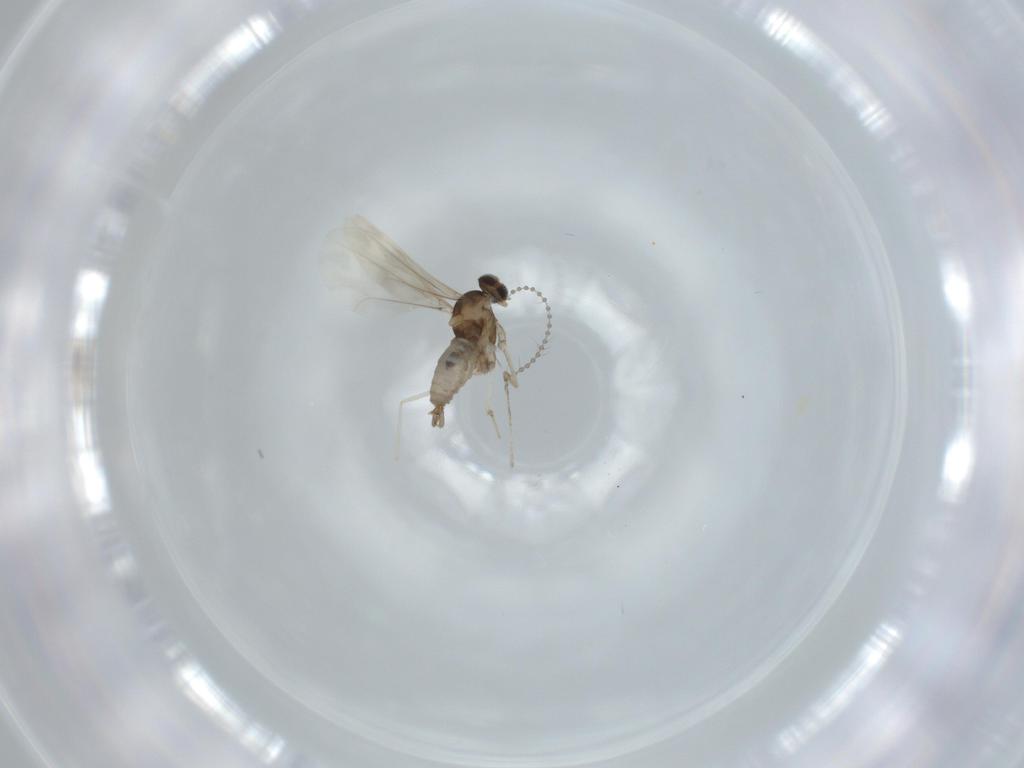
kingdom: Animalia
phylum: Arthropoda
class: Insecta
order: Diptera
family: Cecidomyiidae
